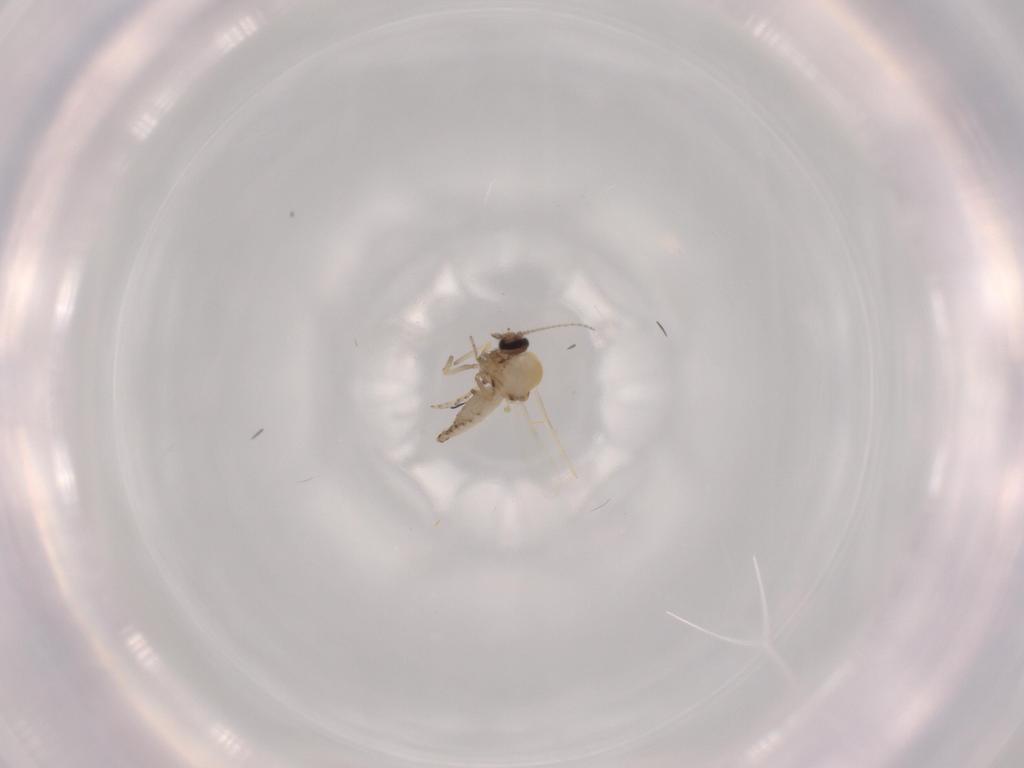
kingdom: Animalia
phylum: Arthropoda
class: Insecta
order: Diptera
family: Ceratopogonidae
